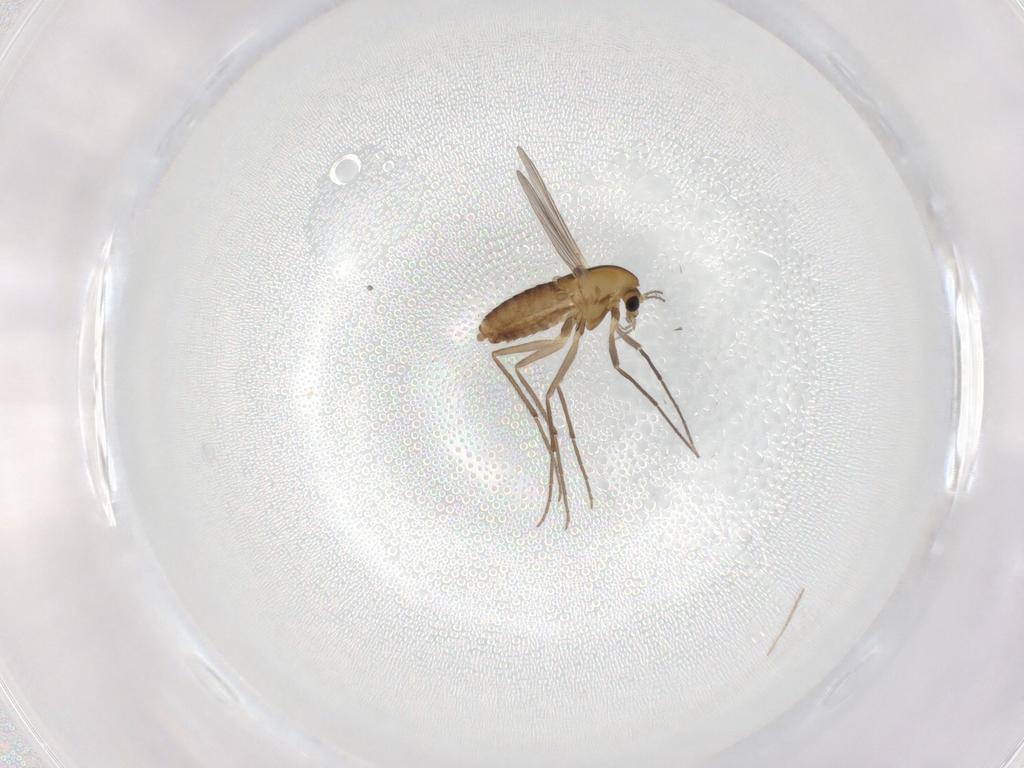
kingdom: Animalia
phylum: Arthropoda
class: Insecta
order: Diptera
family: Chironomidae
